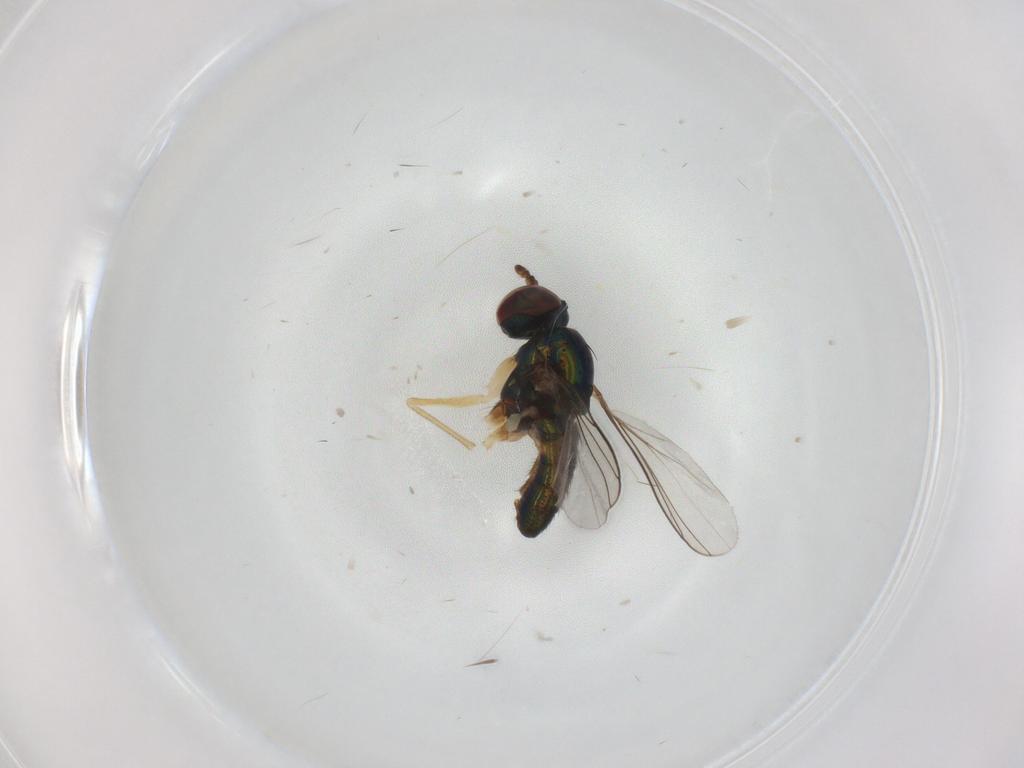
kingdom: Animalia
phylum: Arthropoda
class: Insecta
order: Diptera
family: Dolichopodidae
